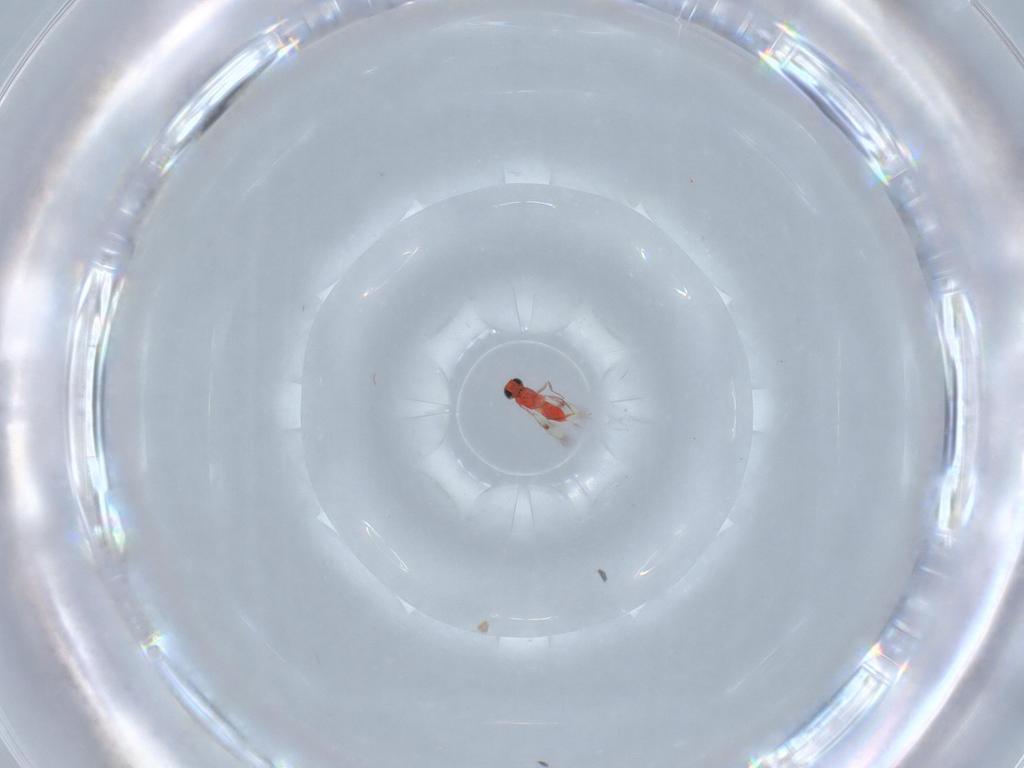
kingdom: Animalia
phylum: Arthropoda
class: Insecta
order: Hymenoptera
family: Trichogrammatidae
